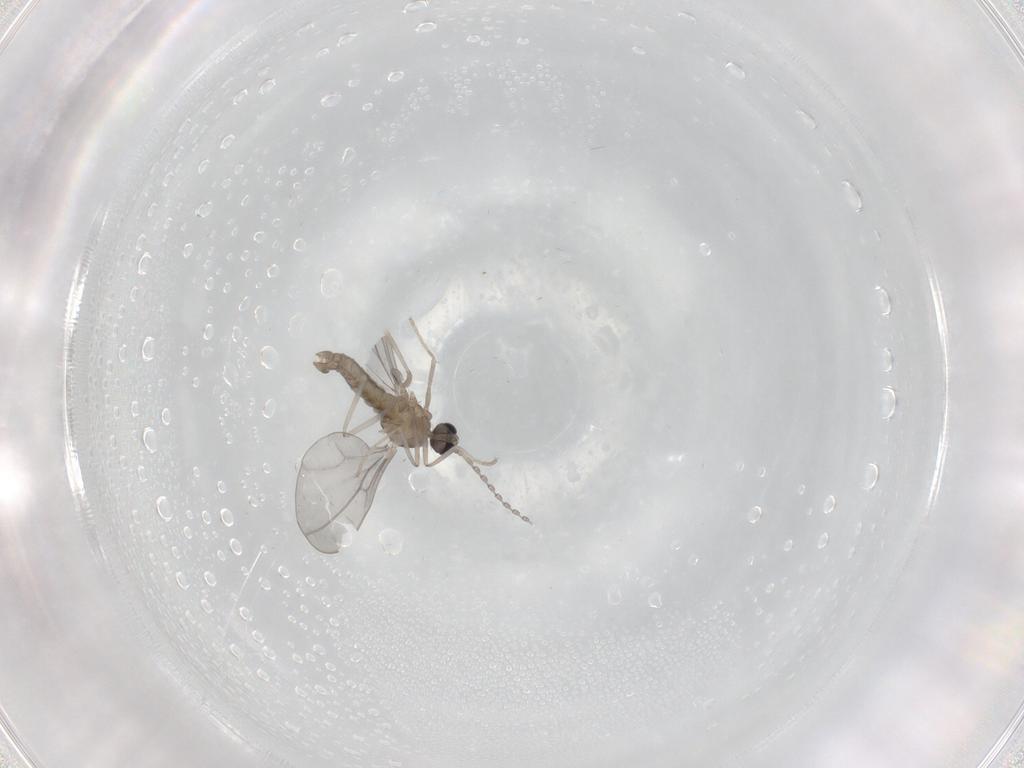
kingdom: Animalia
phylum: Arthropoda
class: Insecta
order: Diptera
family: Cecidomyiidae
